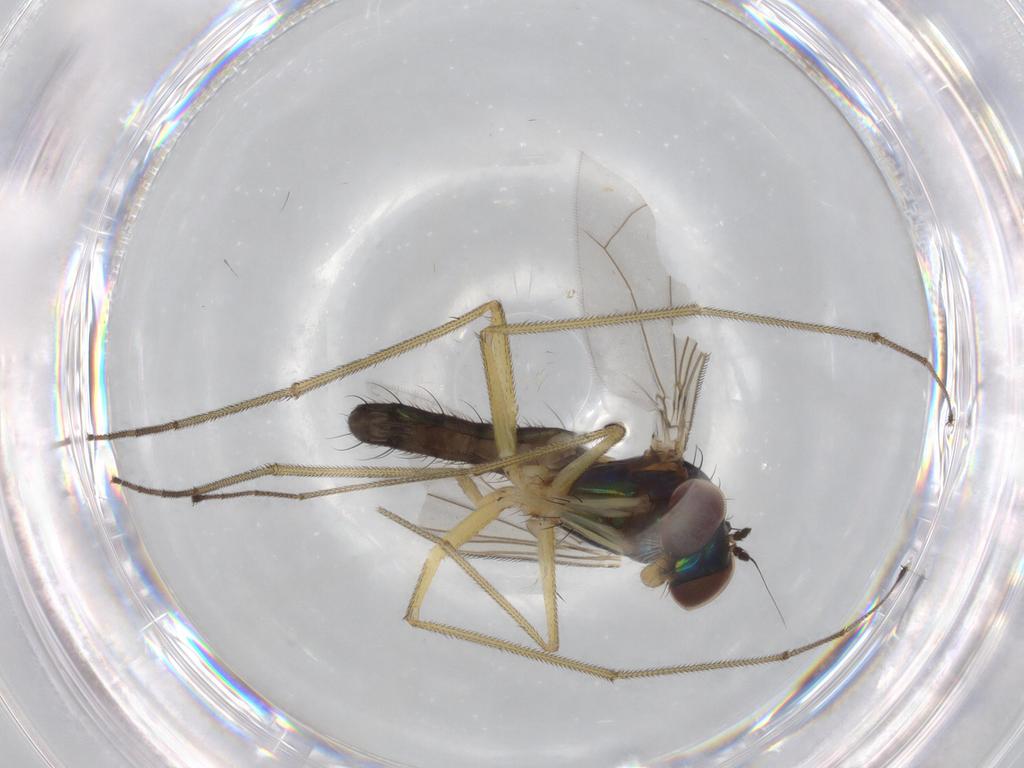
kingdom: Animalia
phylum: Arthropoda
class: Insecta
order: Diptera
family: Dolichopodidae
